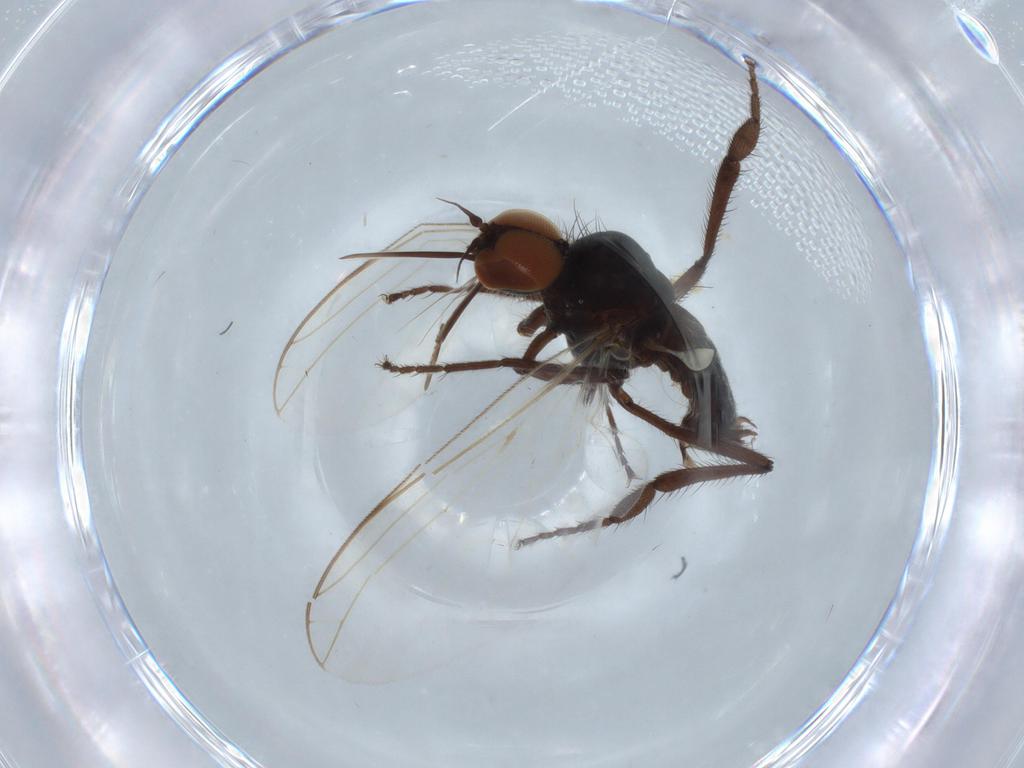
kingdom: Animalia
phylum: Arthropoda
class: Insecta
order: Diptera
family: Empididae
